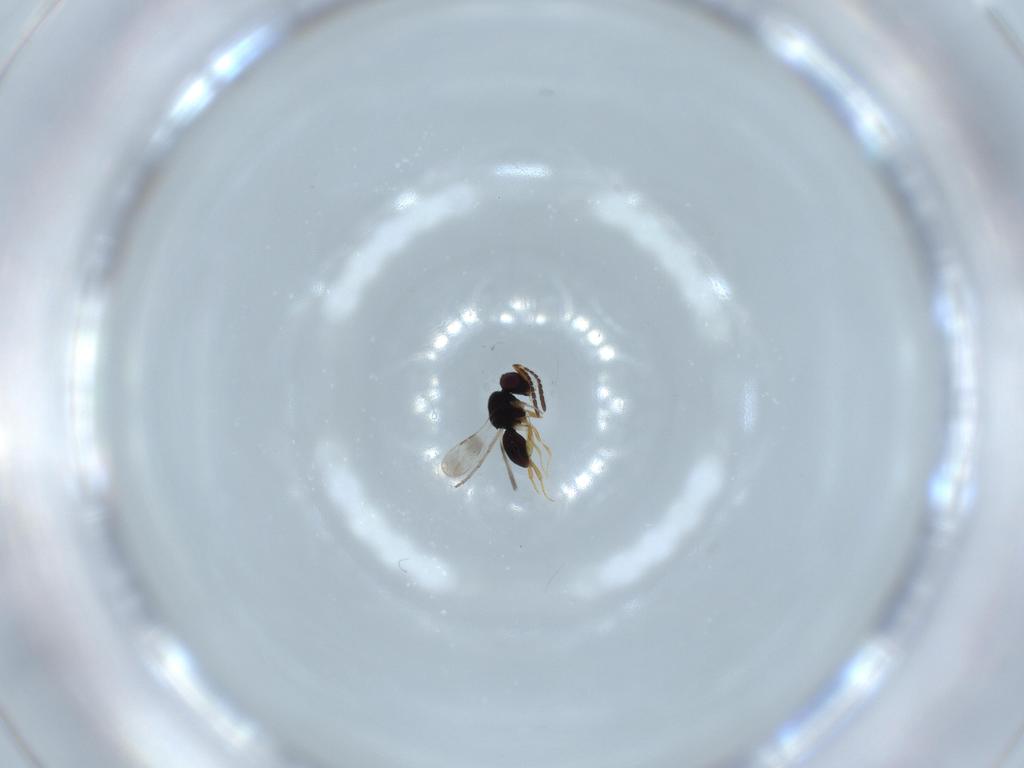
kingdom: Animalia
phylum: Arthropoda
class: Insecta
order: Hymenoptera
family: Ceraphronidae
